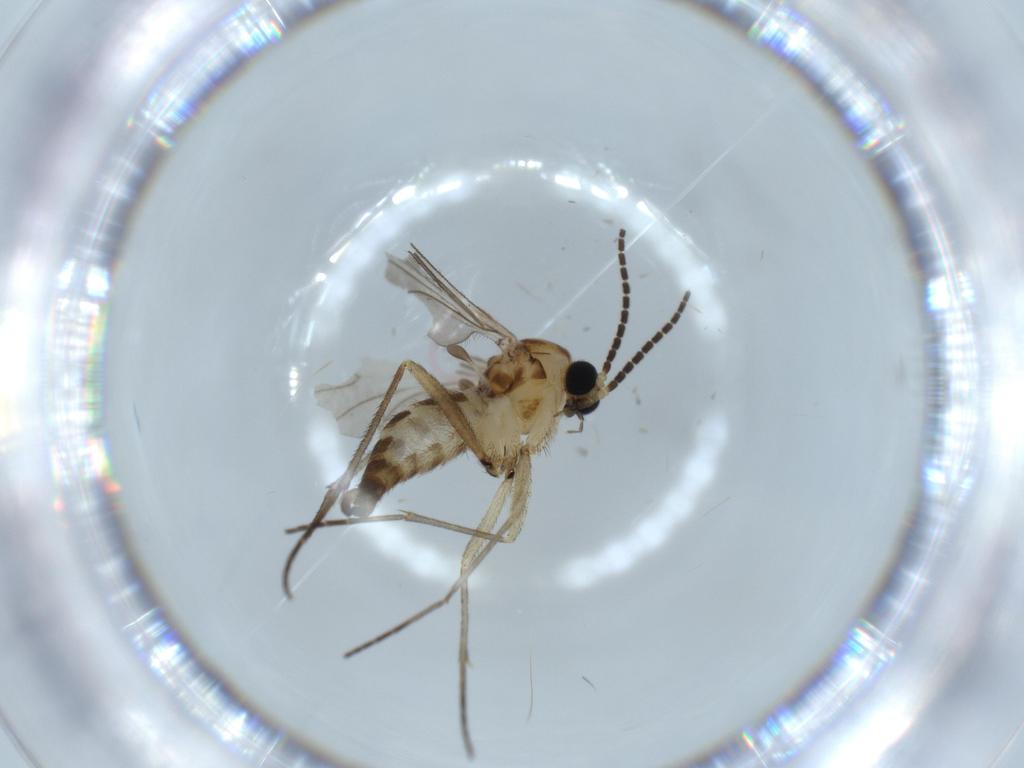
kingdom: Animalia
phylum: Arthropoda
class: Insecta
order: Diptera
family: Sciaridae
